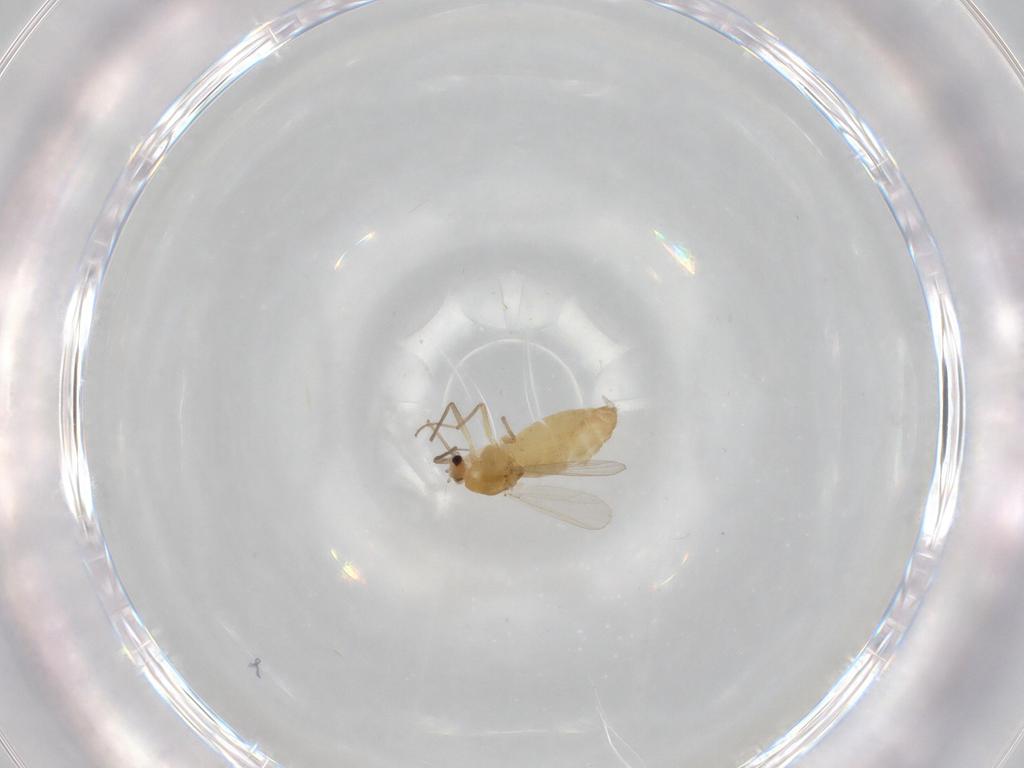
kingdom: Animalia
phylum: Arthropoda
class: Insecta
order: Diptera
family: Chironomidae
